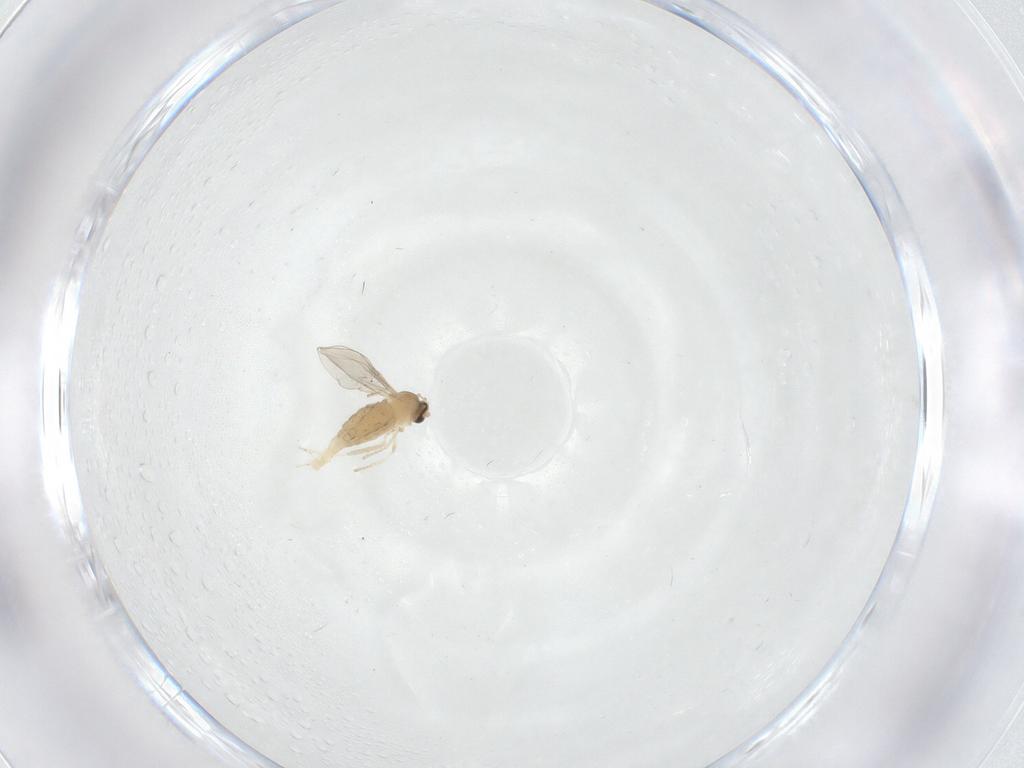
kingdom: Animalia
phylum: Arthropoda
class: Insecta
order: Diptera
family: Cecidomyiidae
